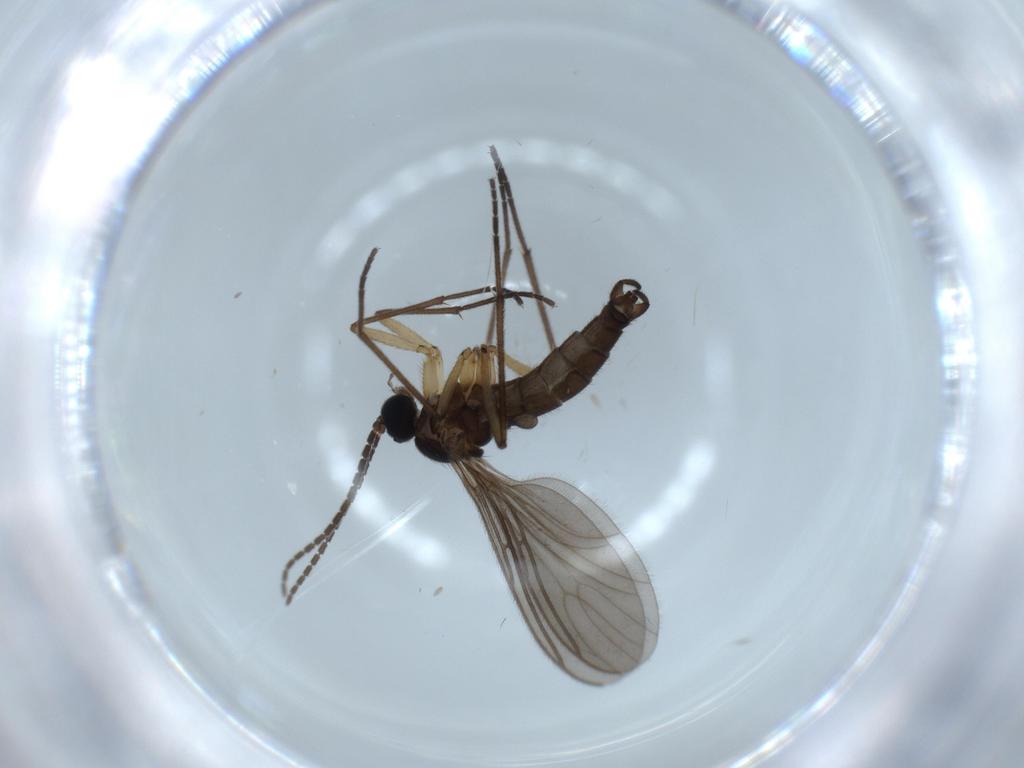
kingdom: Animalia
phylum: Arthropoda
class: Insecta
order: Diptera
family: Sciaridae
